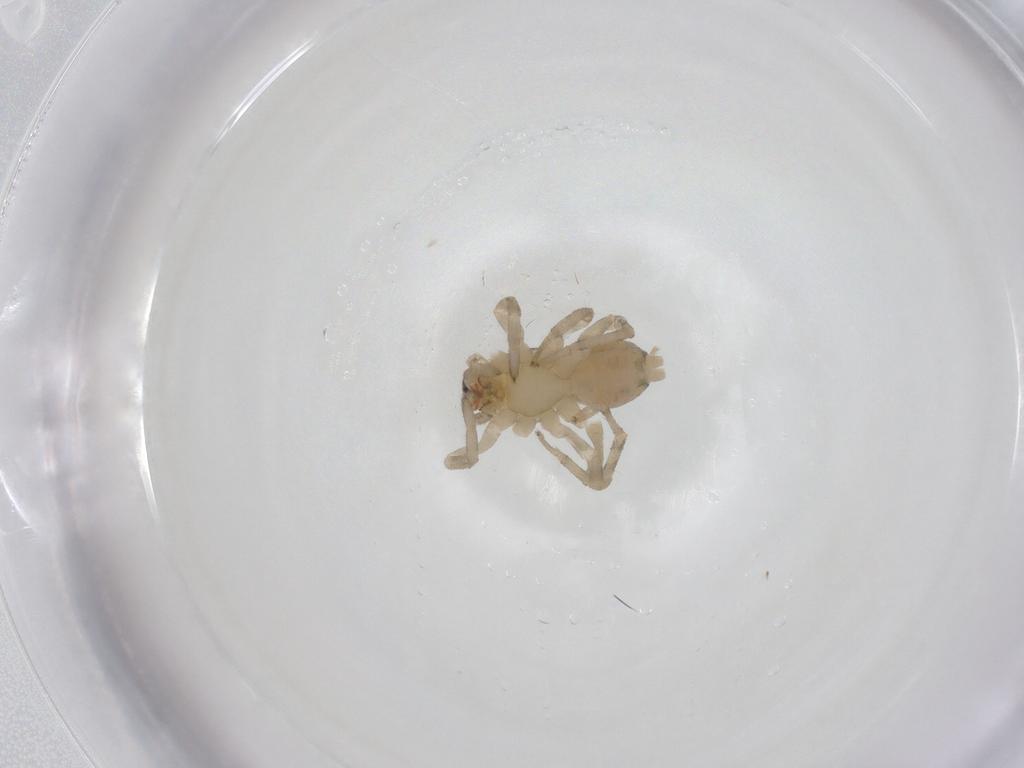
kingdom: Animalia
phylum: Arthropoda
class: Arachnida
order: Araneae
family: Clubionidae
